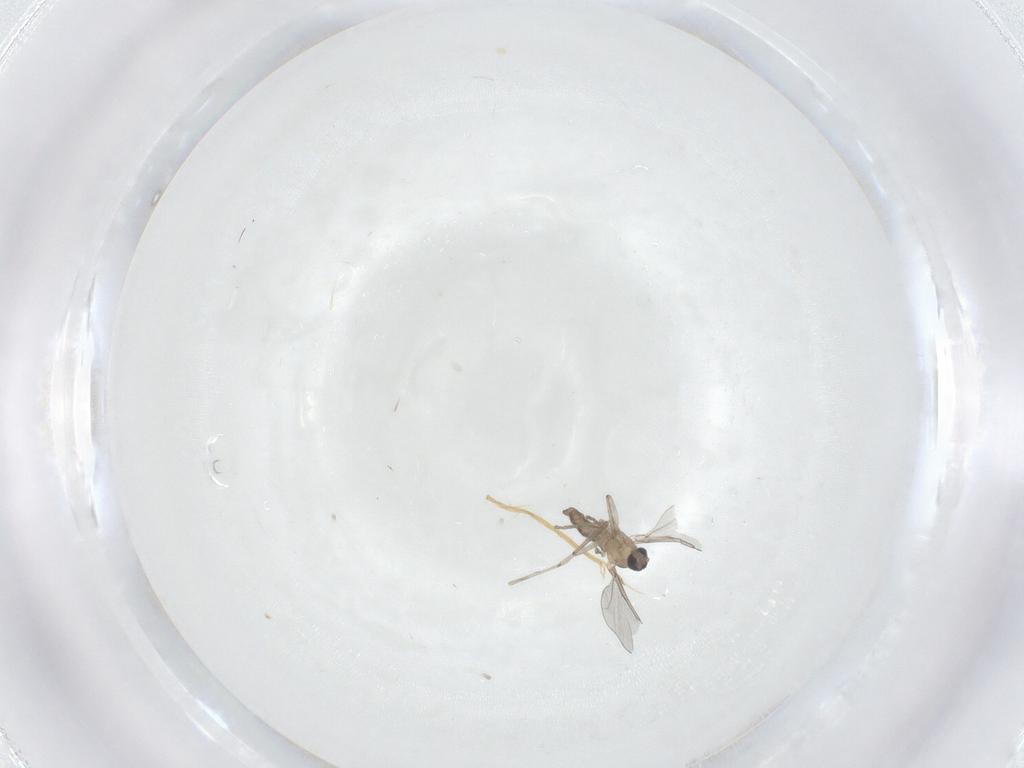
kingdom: Animalia
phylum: Arthropoda
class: Insecta
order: Diptera
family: Cecidomyiidae
